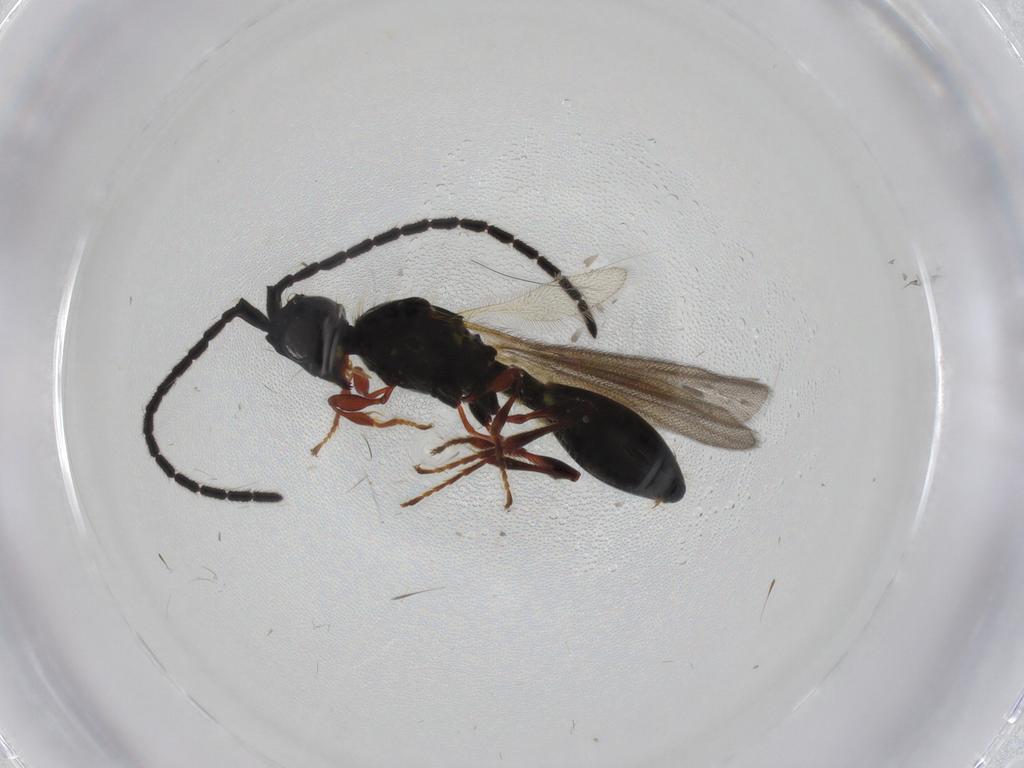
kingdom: Animalia
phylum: Arthropoda
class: Insecta
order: Hymenoptera
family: Diapriidae
